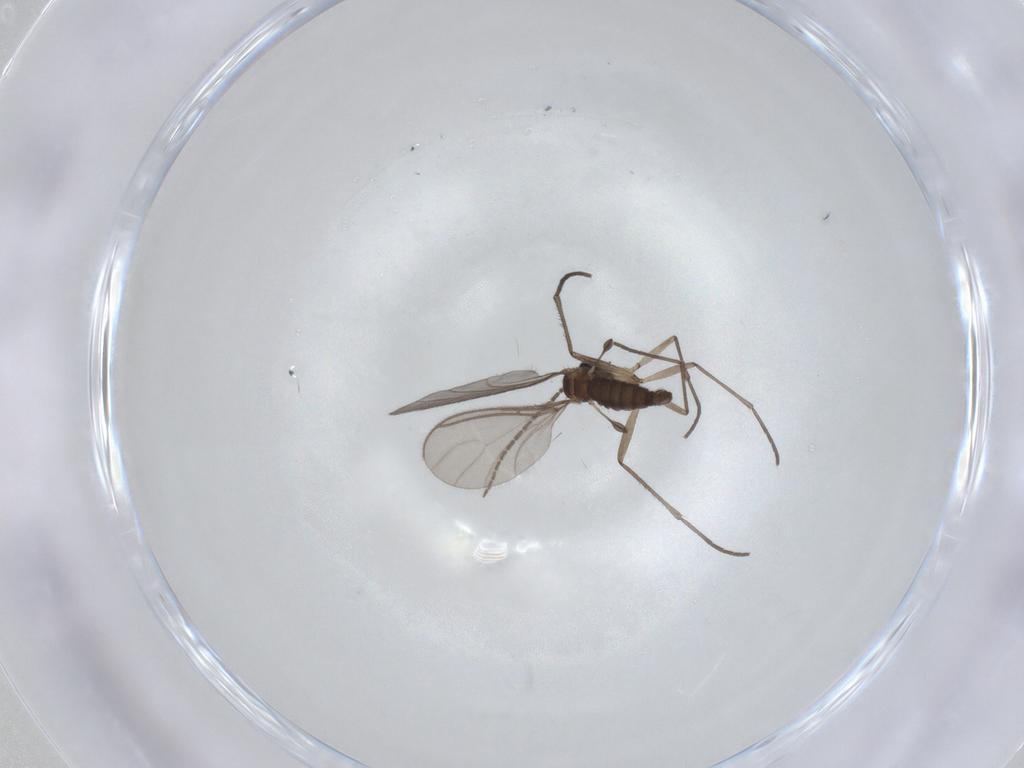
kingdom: Animalia
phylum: Arthropoda
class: Insecta
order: Diptera
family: Sciaridae
